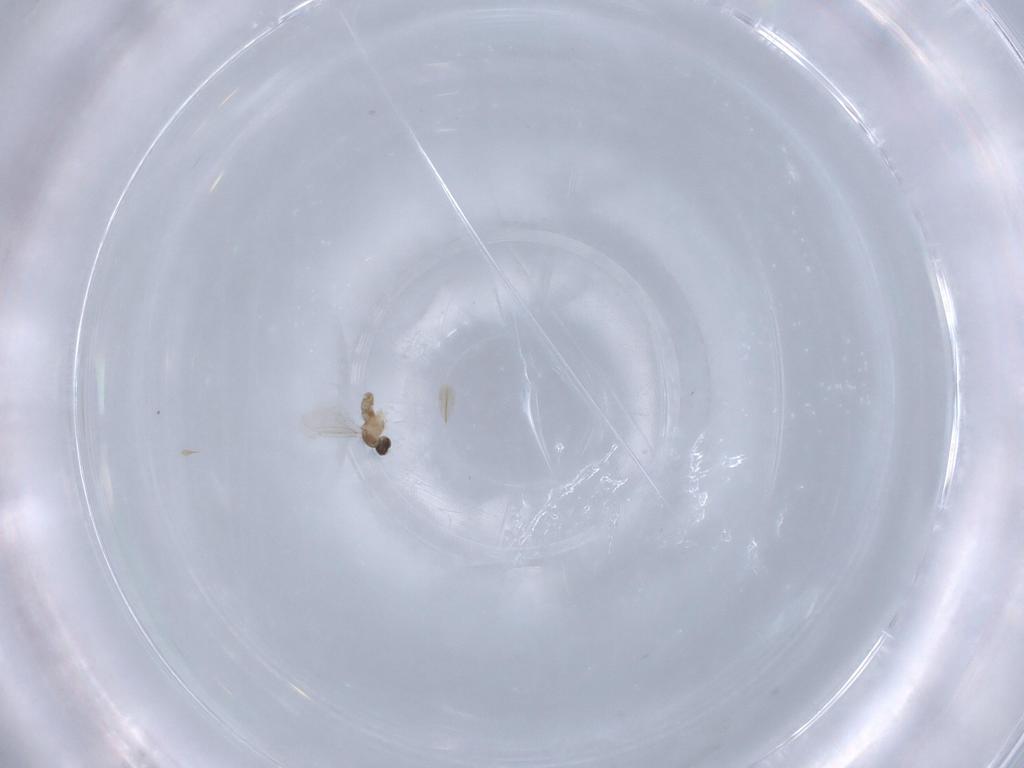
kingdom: Animalia
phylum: Arthropoda
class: Insecta
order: Diptera
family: Cecidomyiidae
